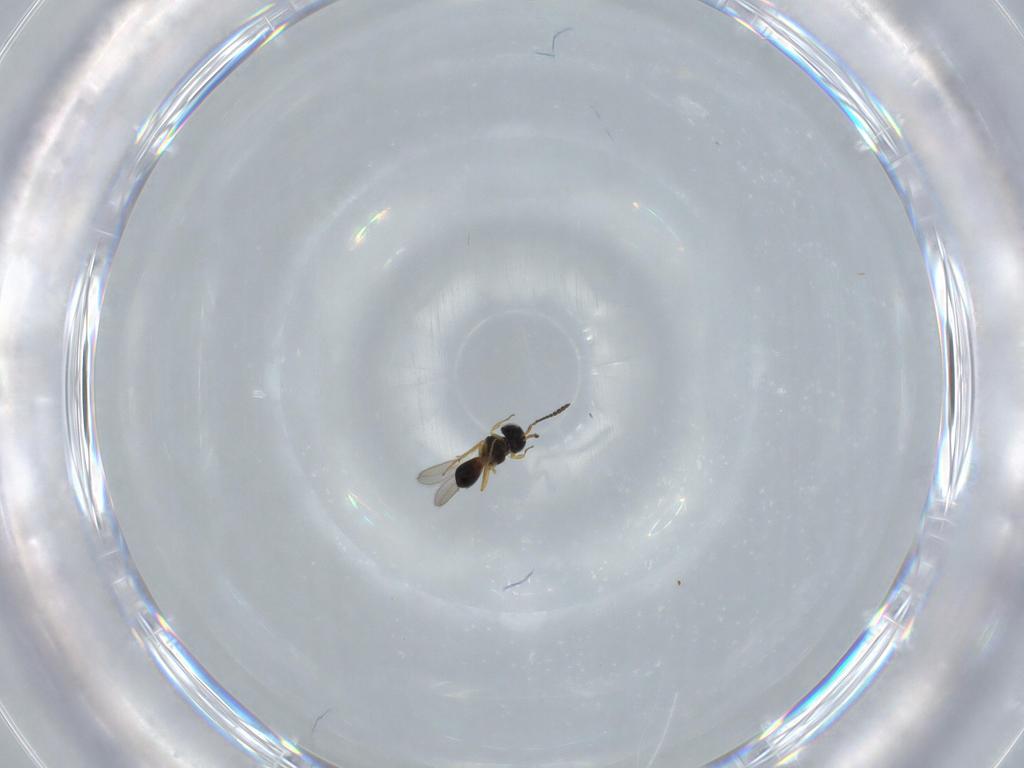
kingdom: Animalia
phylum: Arthropoda
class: Insecta
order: Hymenoptera
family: Scelionidae
